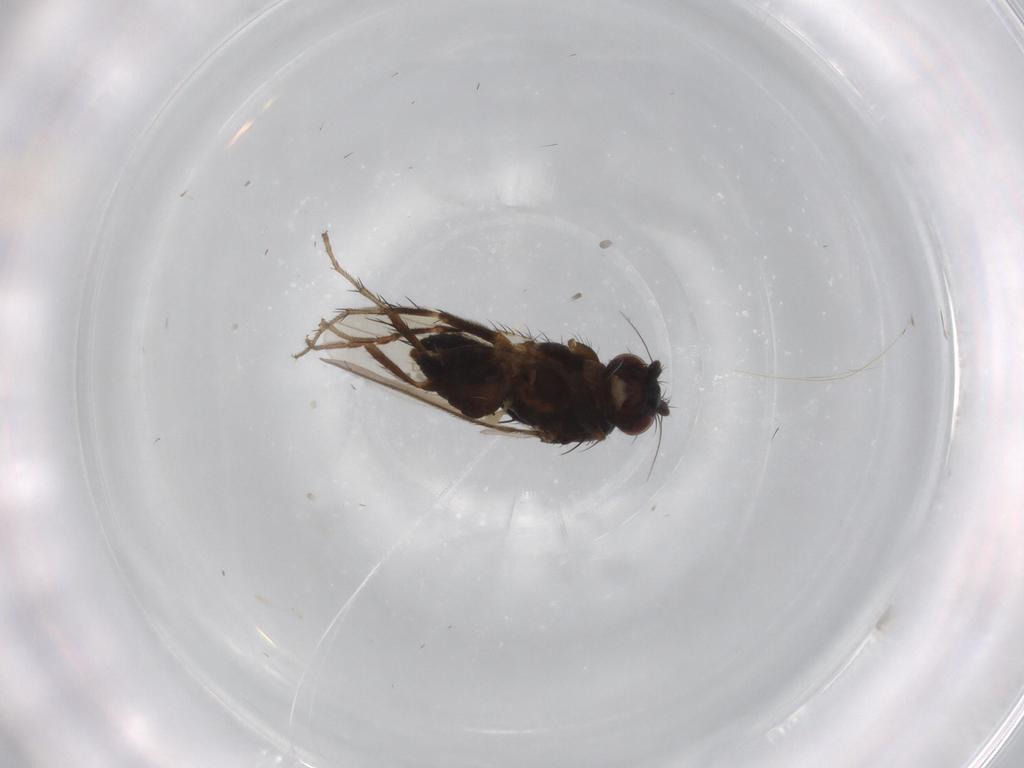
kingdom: Animalia
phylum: Arthropoda
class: Insecta
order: Diptera
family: Sphaeroceridae
